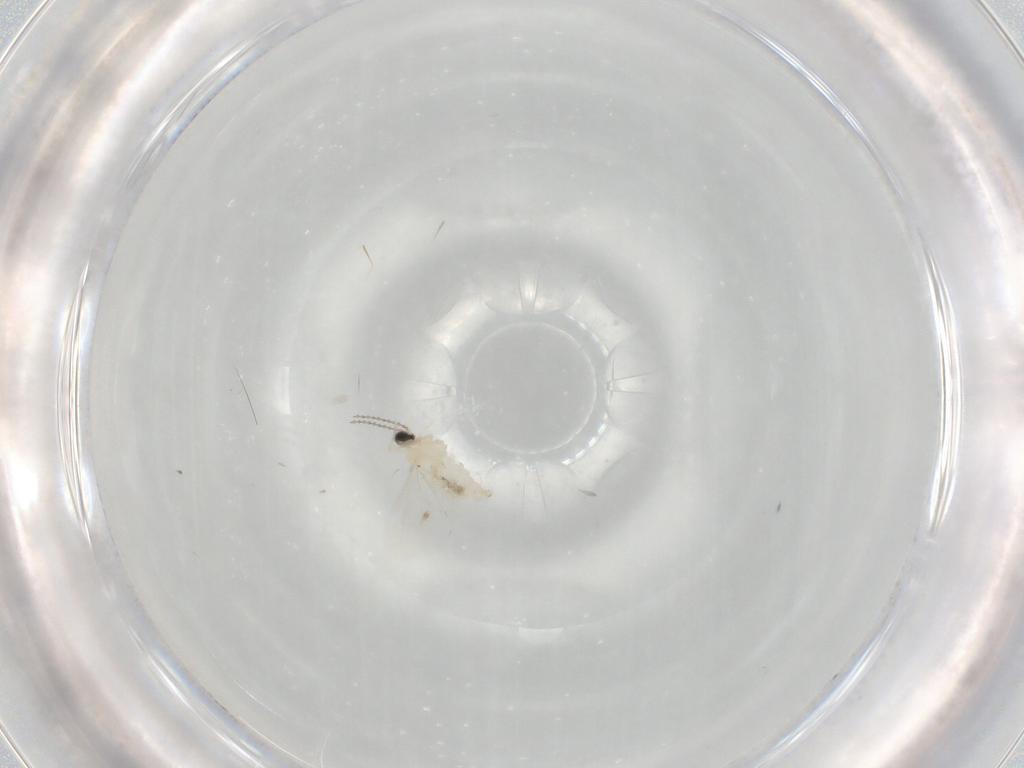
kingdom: Animalia
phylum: Arthropoda
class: Insecta
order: Diptera
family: Cecidomyiidae
